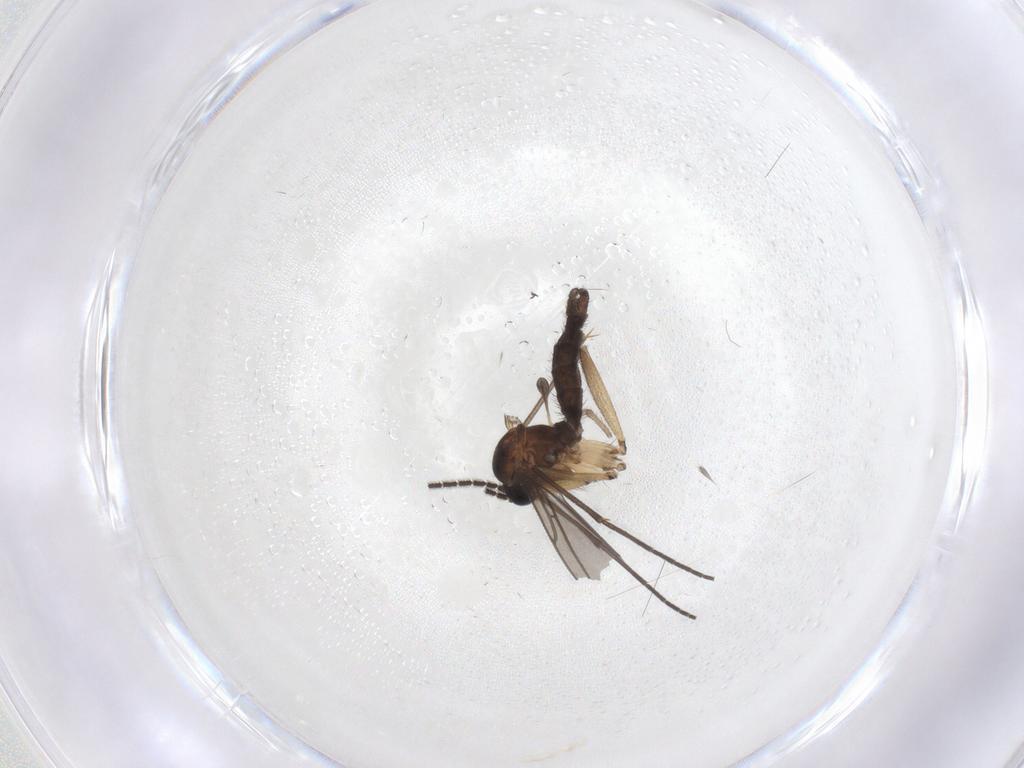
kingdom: Animalia
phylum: Arthropoda
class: Insecta
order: Diptera
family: Sciaridae
